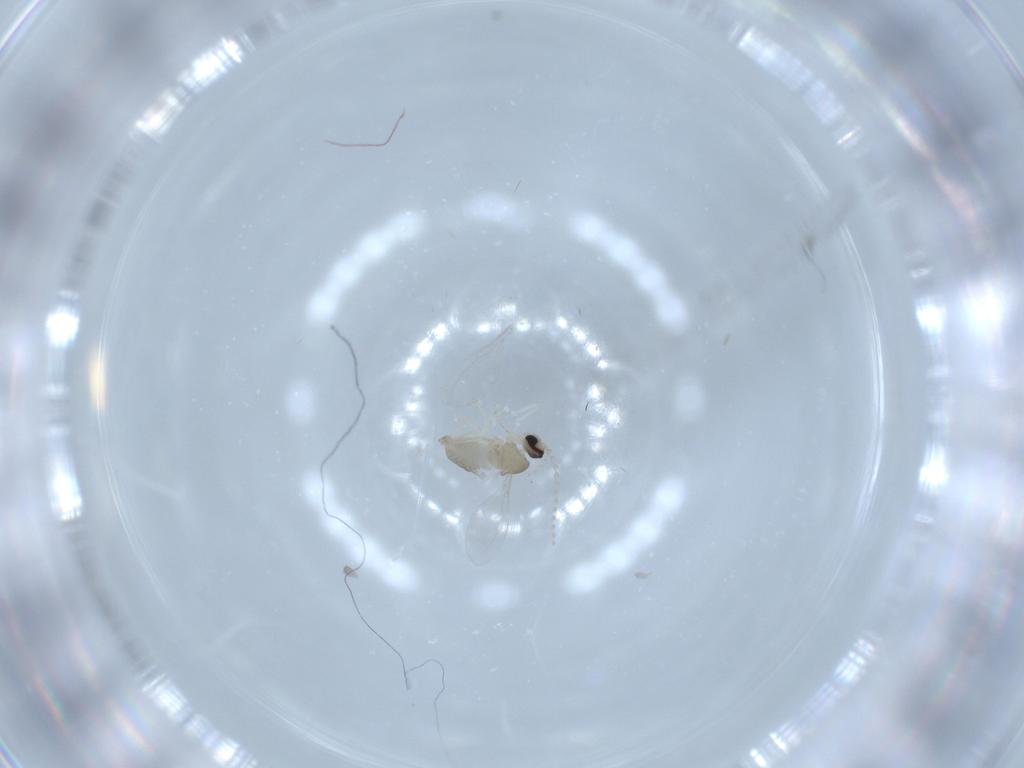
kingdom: Animalia
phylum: Arthropoda
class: Insecta
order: Diptera
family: Cecidomyiidae
